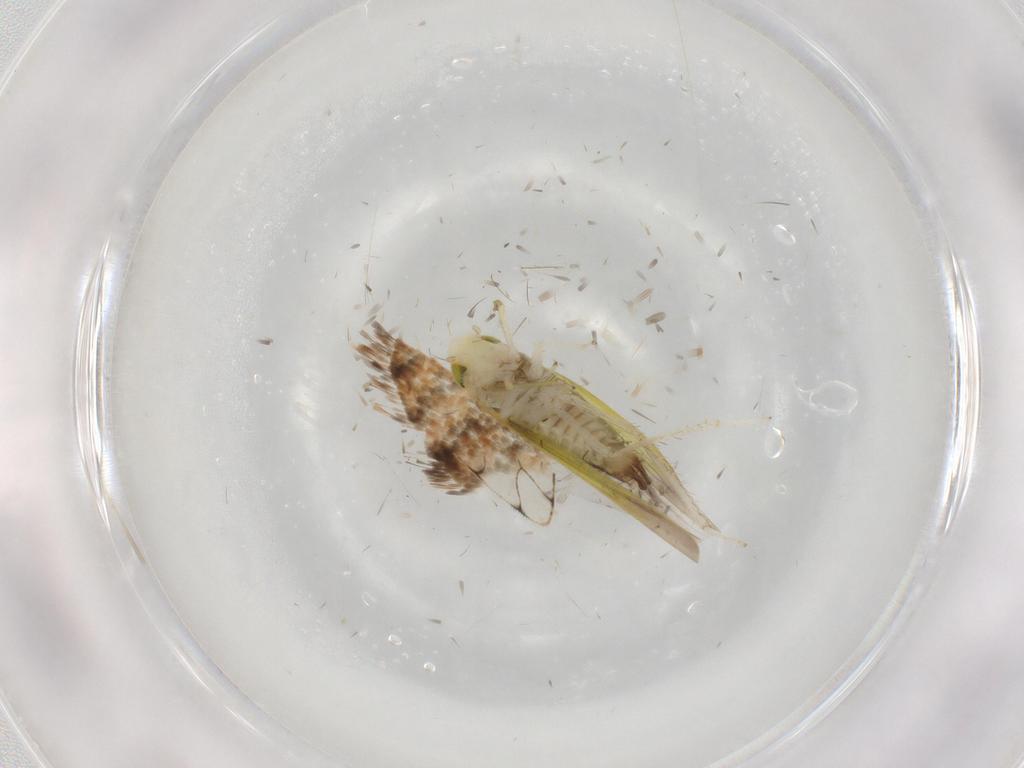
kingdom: Animalia
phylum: Arthropoda
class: Insecta
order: Hemiptera
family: Cicadellidae
